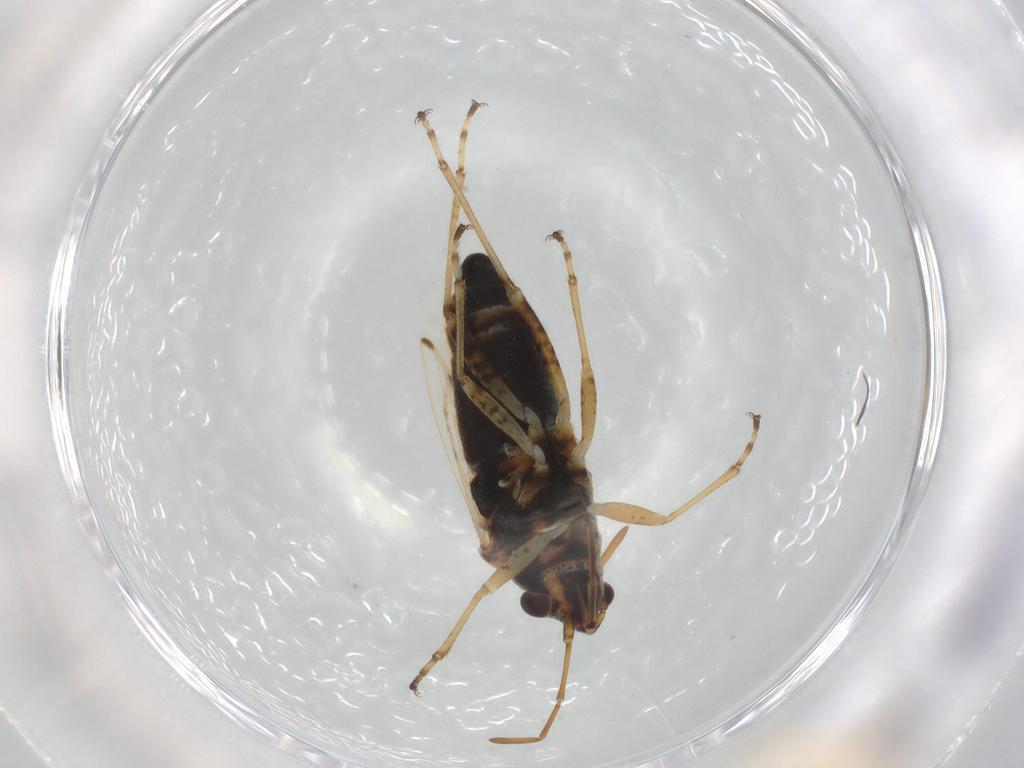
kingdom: Animalia
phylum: Arthropoda
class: Insecta
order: Hemiptera
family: Lygaeidae
